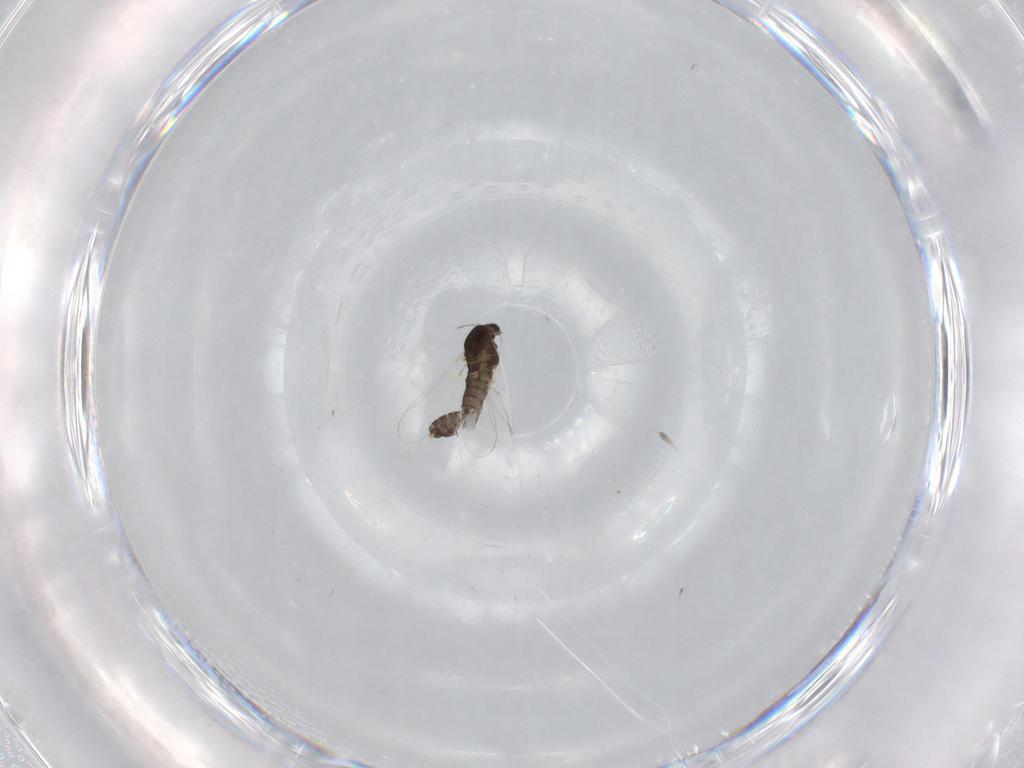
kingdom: Animalia
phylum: Arthropoda
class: Insecta
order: Diptera
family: Chironomidae
